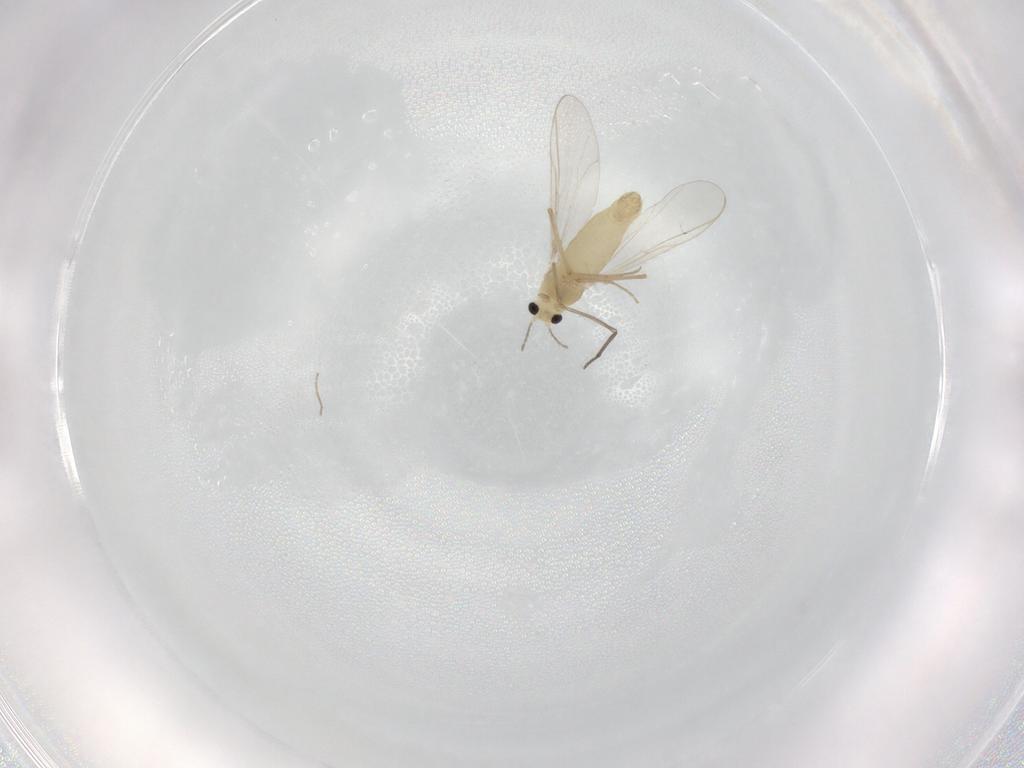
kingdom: Animalia
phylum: Arthropoda
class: Insecta
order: Diptera
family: Chironomidae
